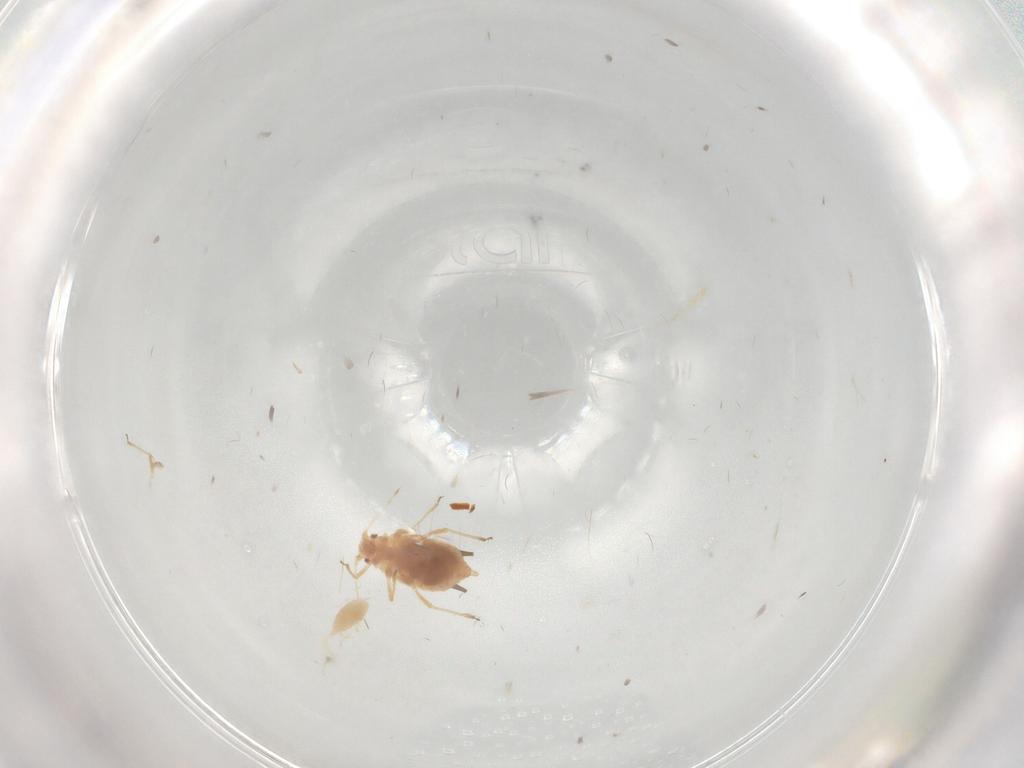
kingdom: Animalia
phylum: Arthropoda
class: Insecta
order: Hemiptera
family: Aphididae
